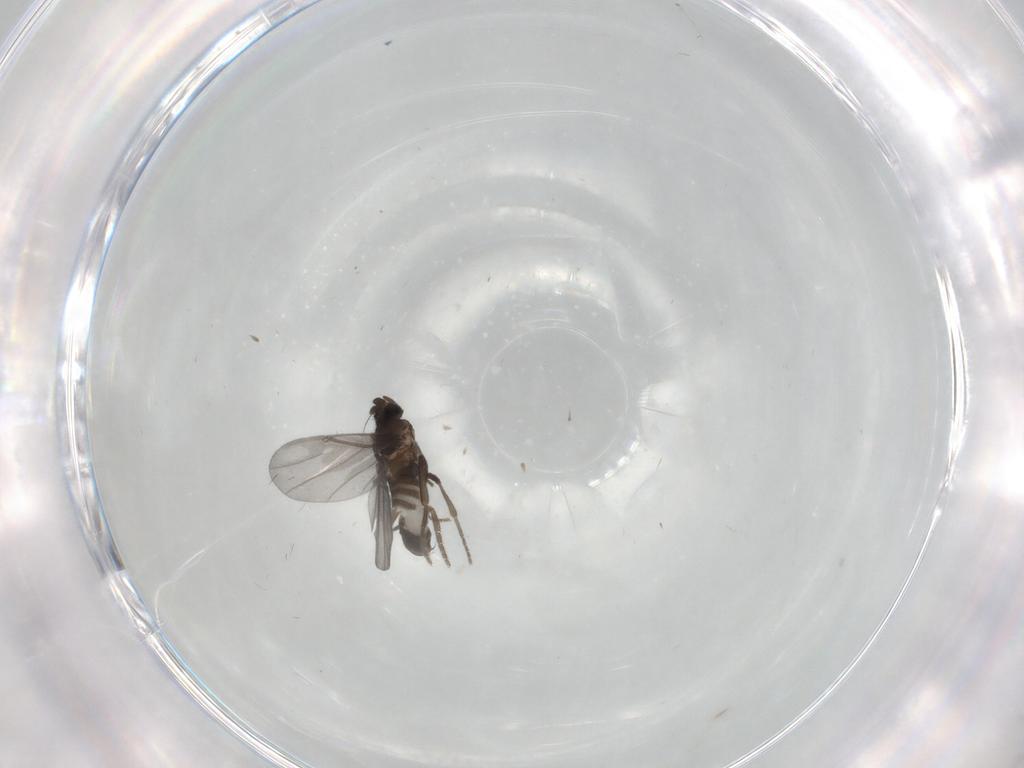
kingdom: Animalia
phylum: Arthropoda
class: Insecta
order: Diptera
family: Phoridae
